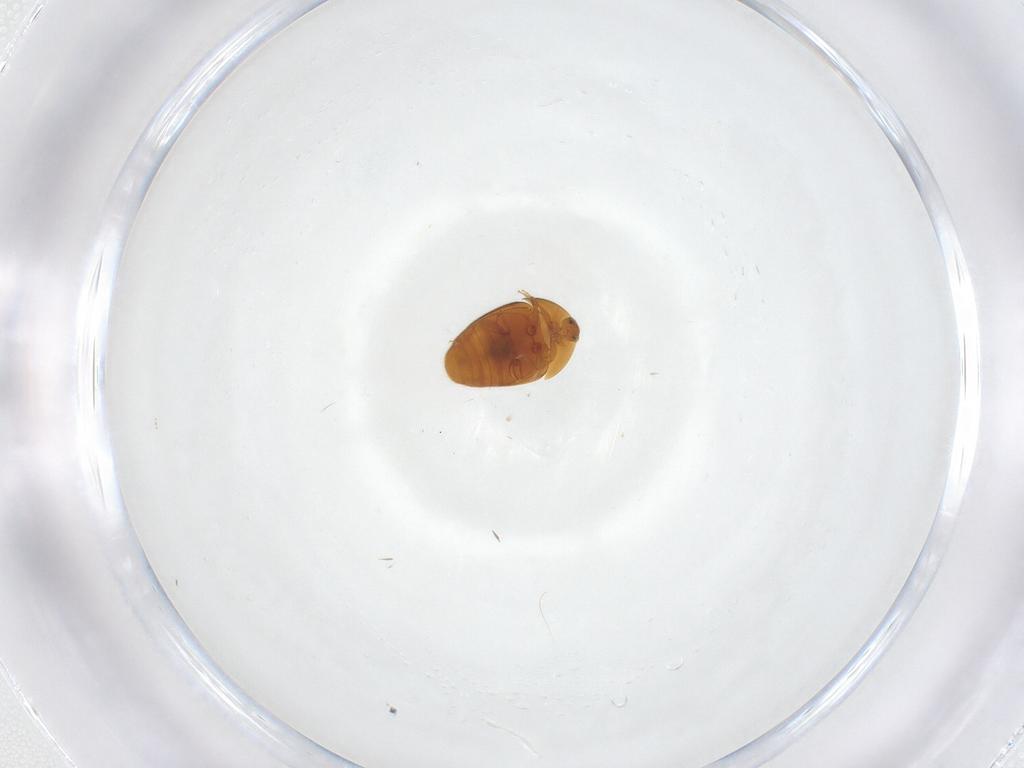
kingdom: Animalia
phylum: Arthropoda
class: Insecta
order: Coleoptera
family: Corylophidae
